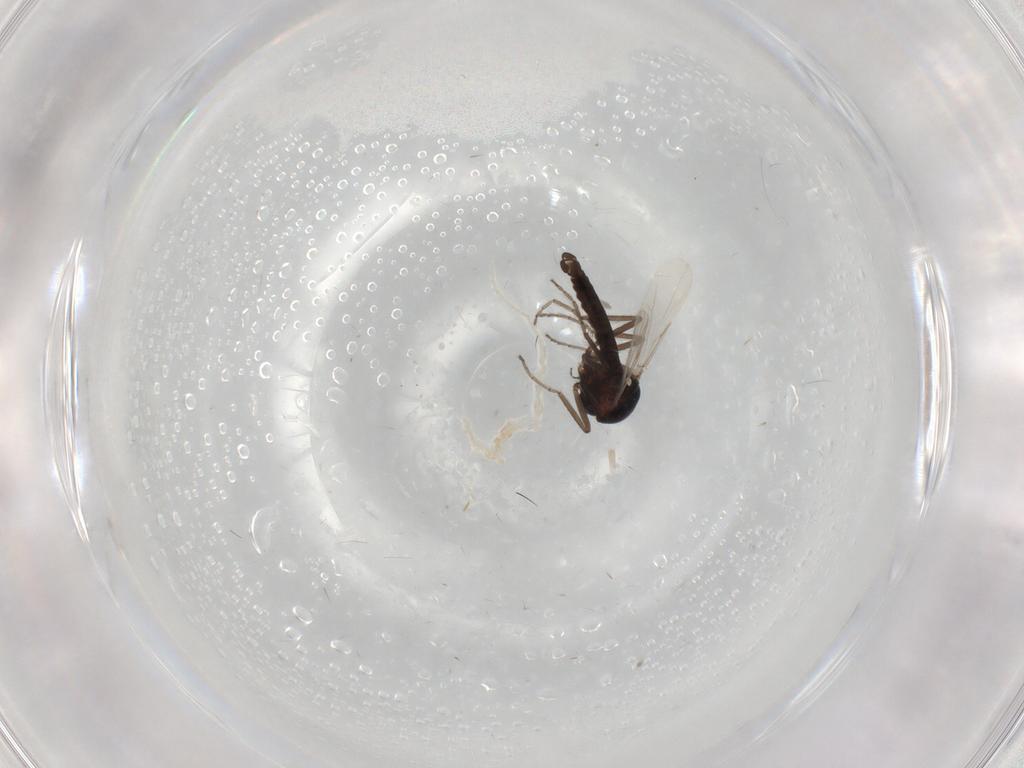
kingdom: Animalia
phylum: Arthropoda
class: Insecta
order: Diptera
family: Ceratopogonidae
